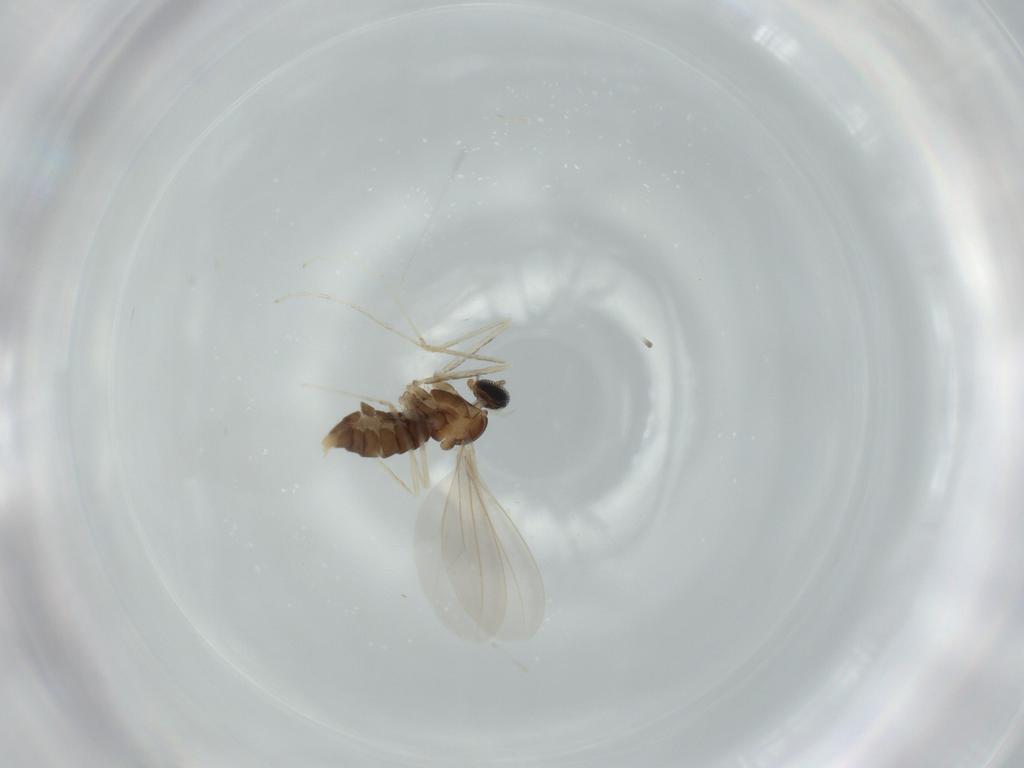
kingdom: Animalia
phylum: Arthropoda
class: Insecta
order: Diptera
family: Cecidomyiidae
